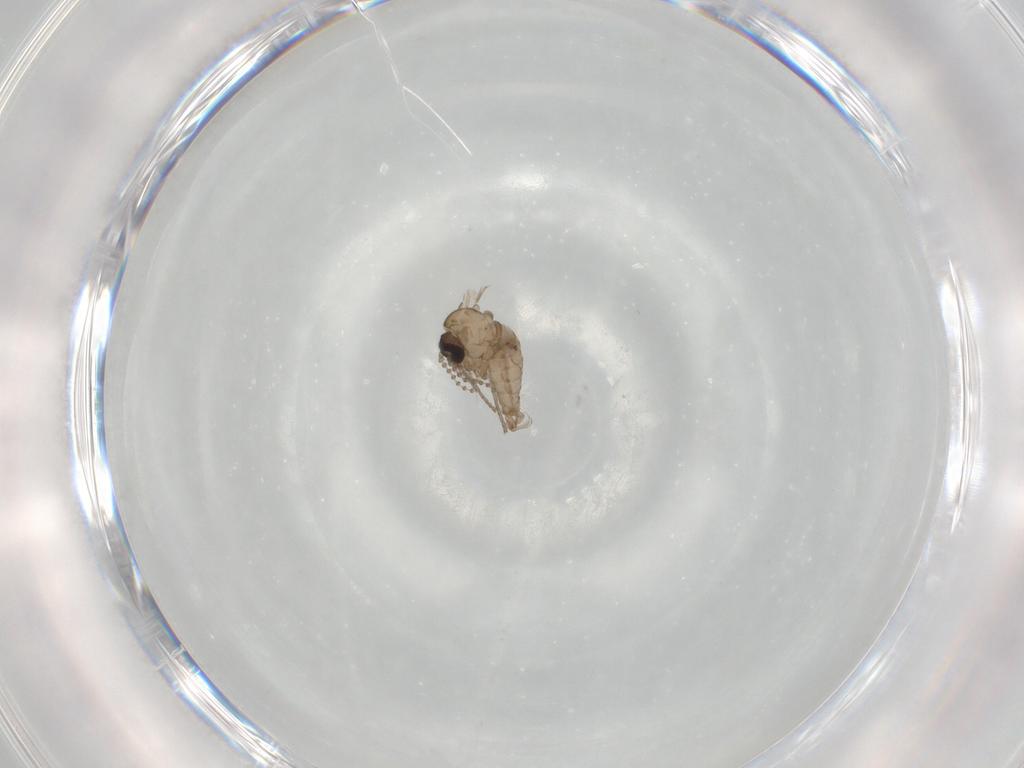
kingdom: Animalia
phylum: Arthropoda
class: Insecta
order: Diptera
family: Psychodidae
